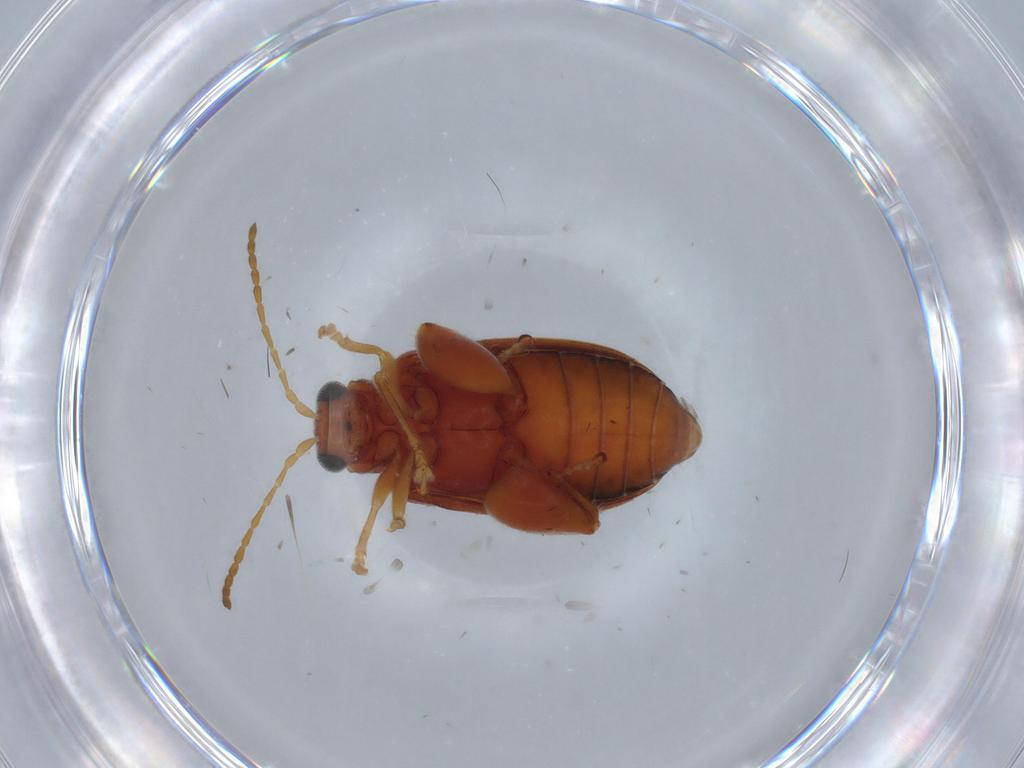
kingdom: Animalia
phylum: Arthropoda
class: Insecta
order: Coleoptera
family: Chrysomelidae
